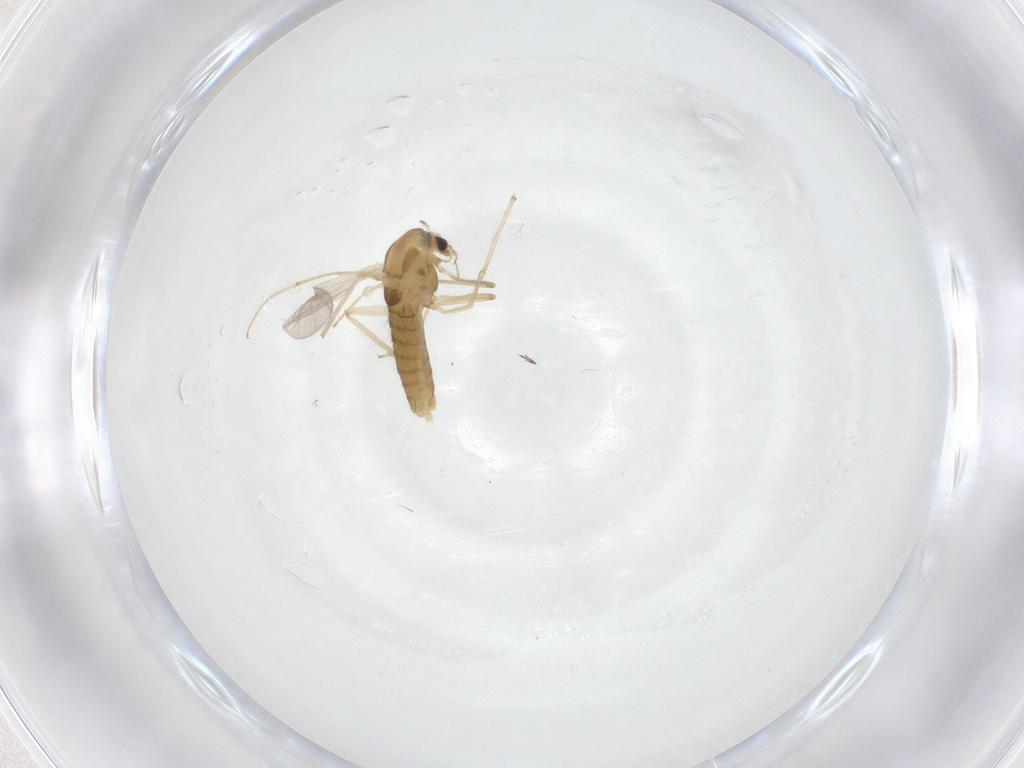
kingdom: Animalia
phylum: Arthropoda
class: Insecta
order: Diptera
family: Chironomidae
